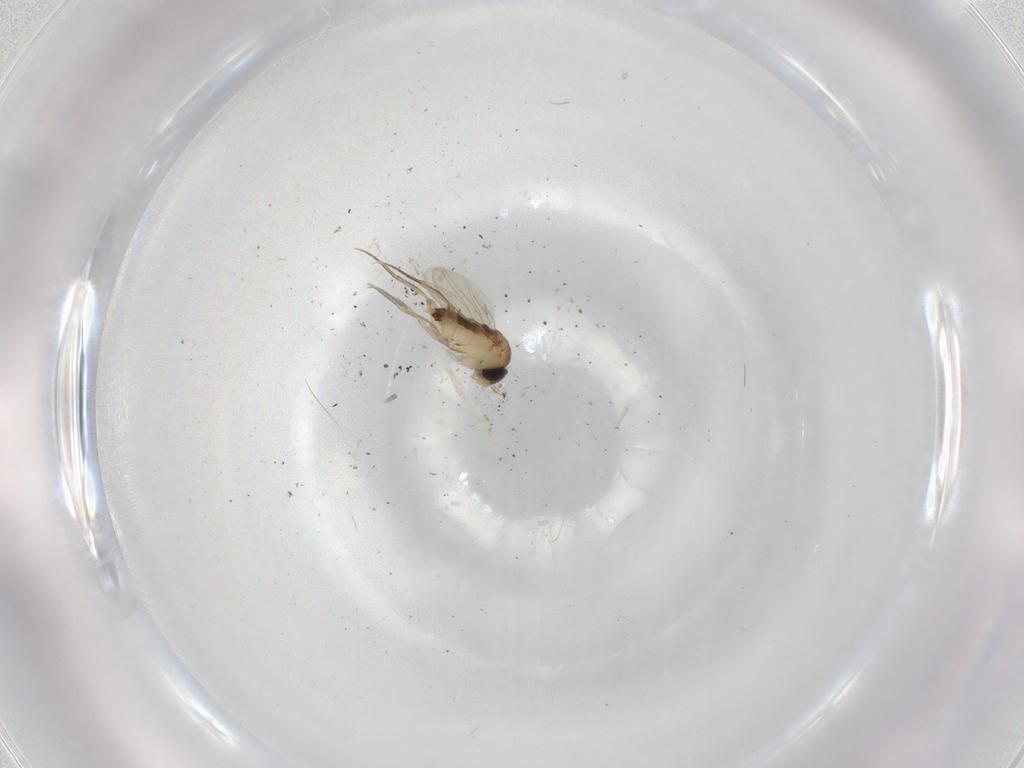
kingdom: Animalia
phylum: Arthropoda
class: Insecta
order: Diptera
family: Phoridae
